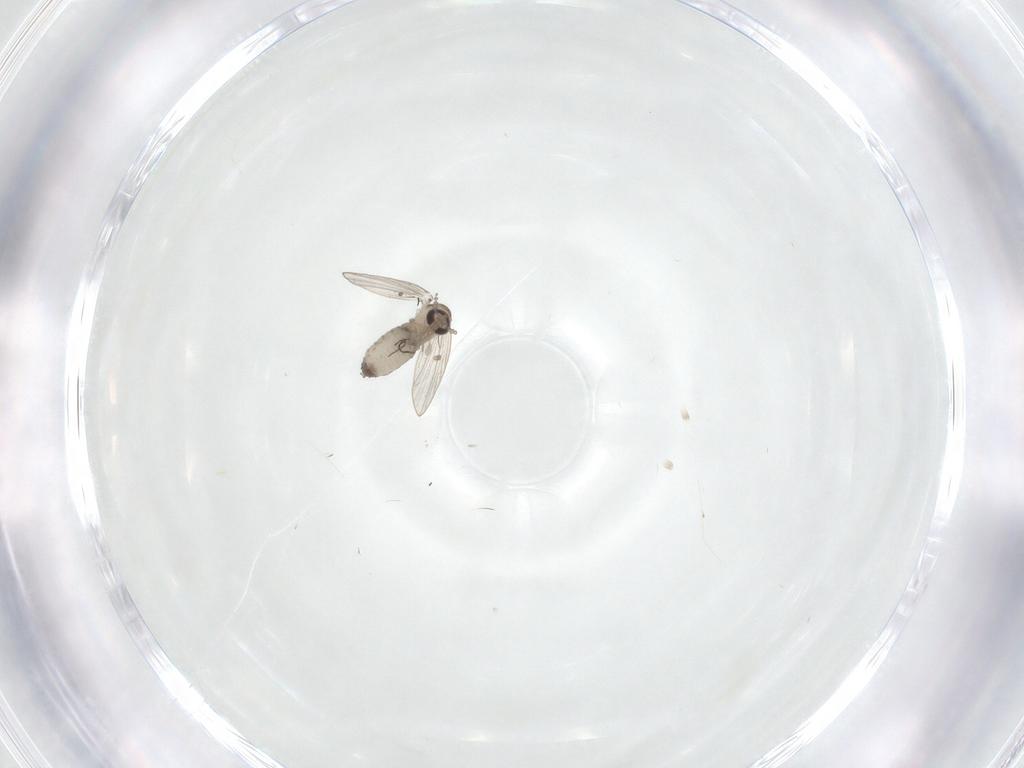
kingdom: Animalia
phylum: Arthropoda
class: Insecta
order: Diptera
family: Psychodidae
